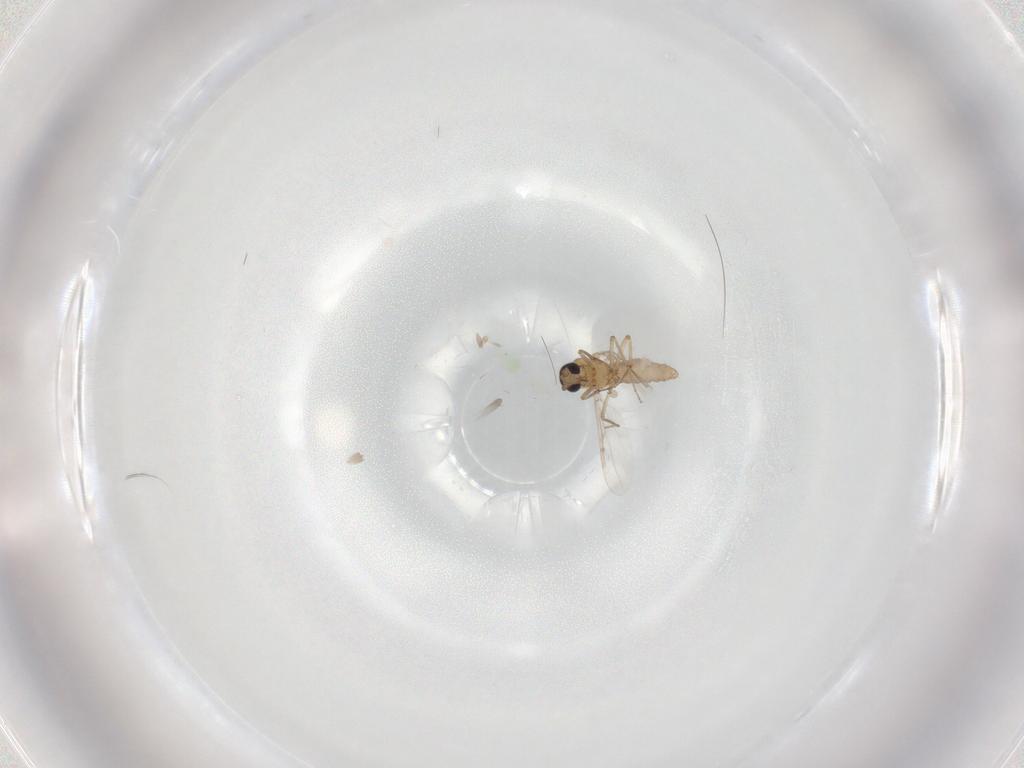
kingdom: Animalia
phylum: Arthropoda
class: Insecta
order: Diptera
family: Ceratopogonidae
